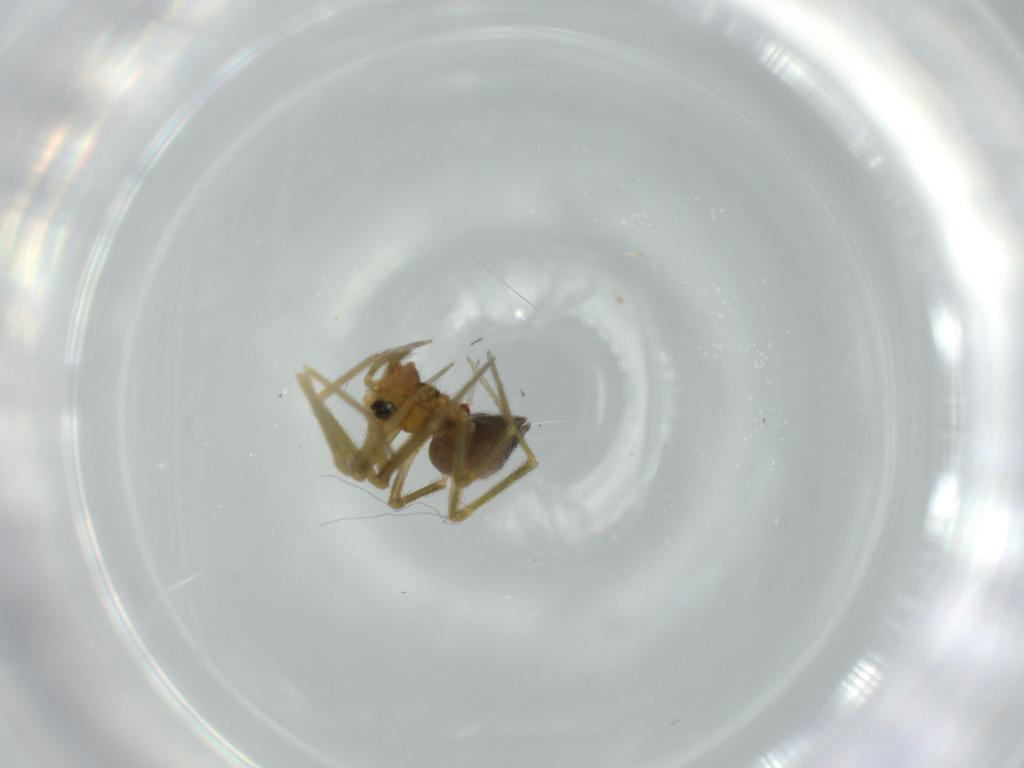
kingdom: Animalia
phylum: Arthropoda
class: Arachnida
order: Araneae
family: Linyphiidae
